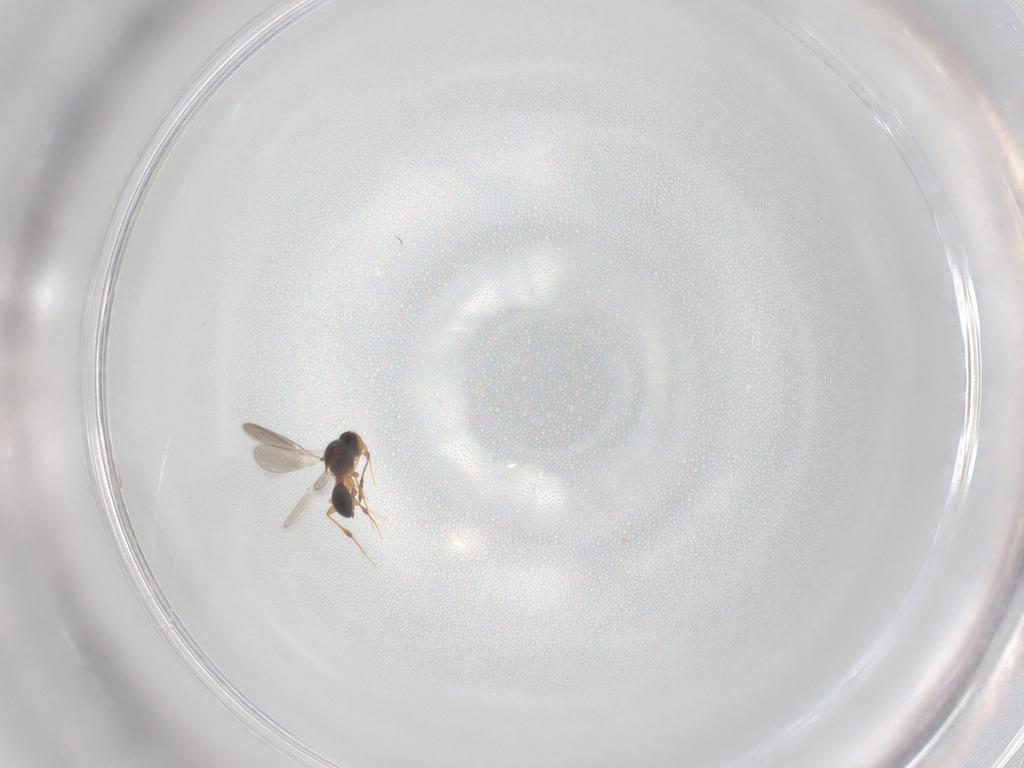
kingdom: Animalia
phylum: Arthropoda
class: Insecta
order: Hymenoptera
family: Platygastridae
